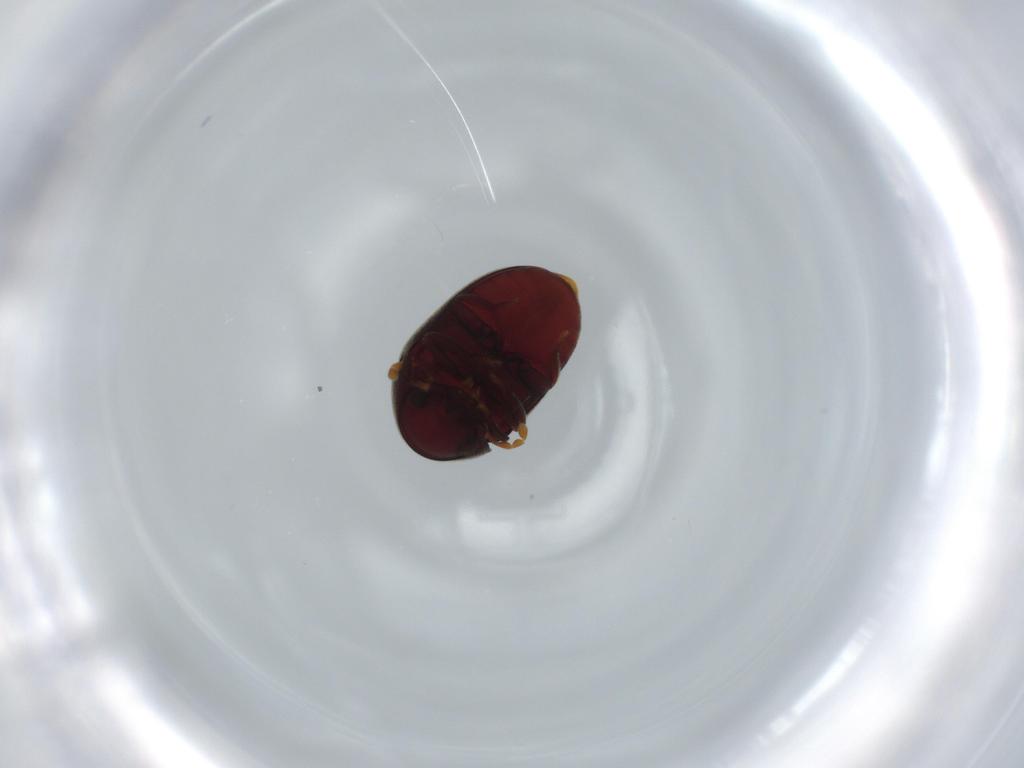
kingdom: Animalia
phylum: Arthropoda
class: Insecta
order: Coleoptera
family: Ptinidae
